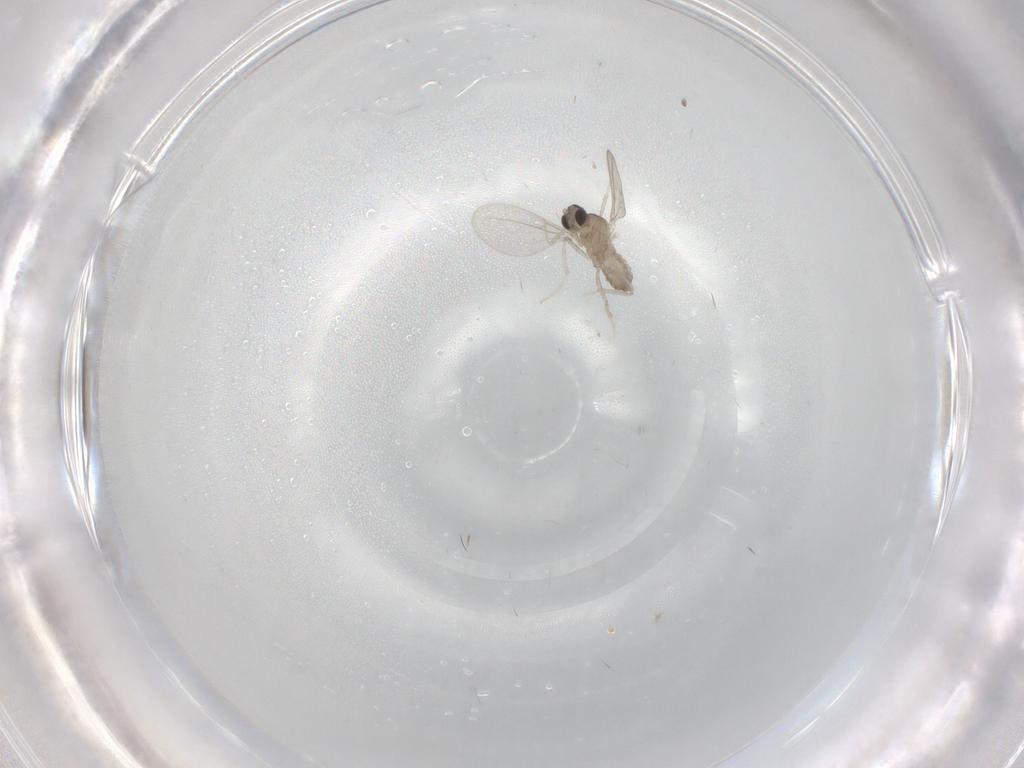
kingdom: Animalia
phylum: Arthropoda
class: Insecta
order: Diptera
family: Cecidomyiidae
